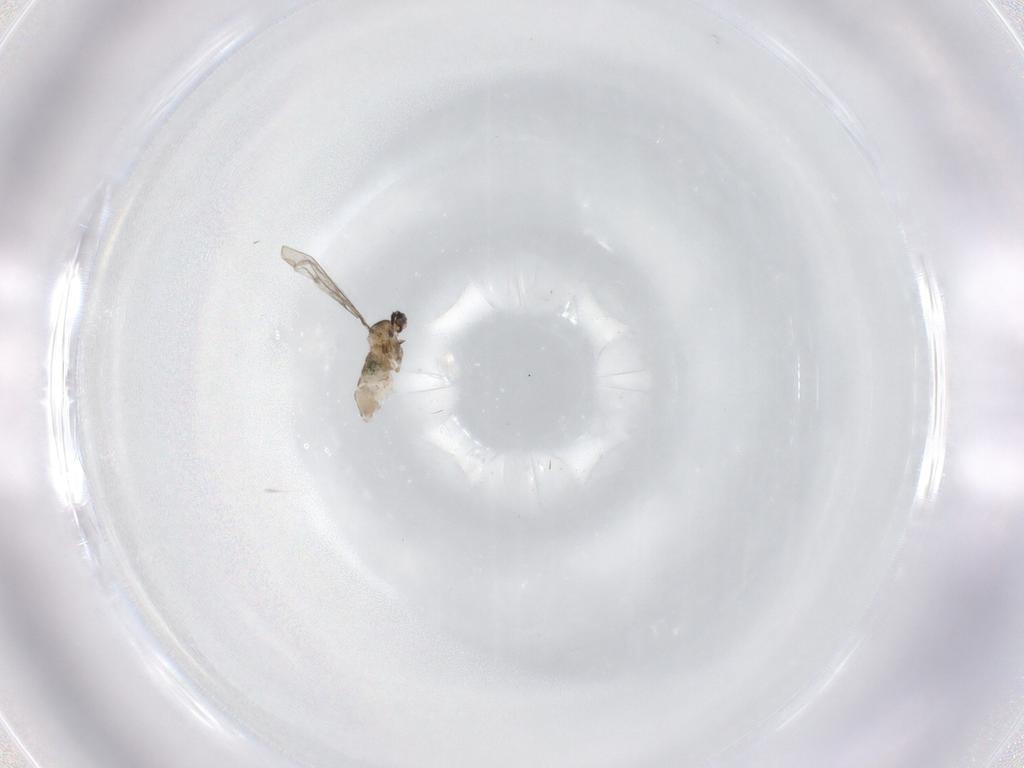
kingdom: Animalia
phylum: Arthropoda
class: Insecta
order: Diptera
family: Cecidomyiidae
